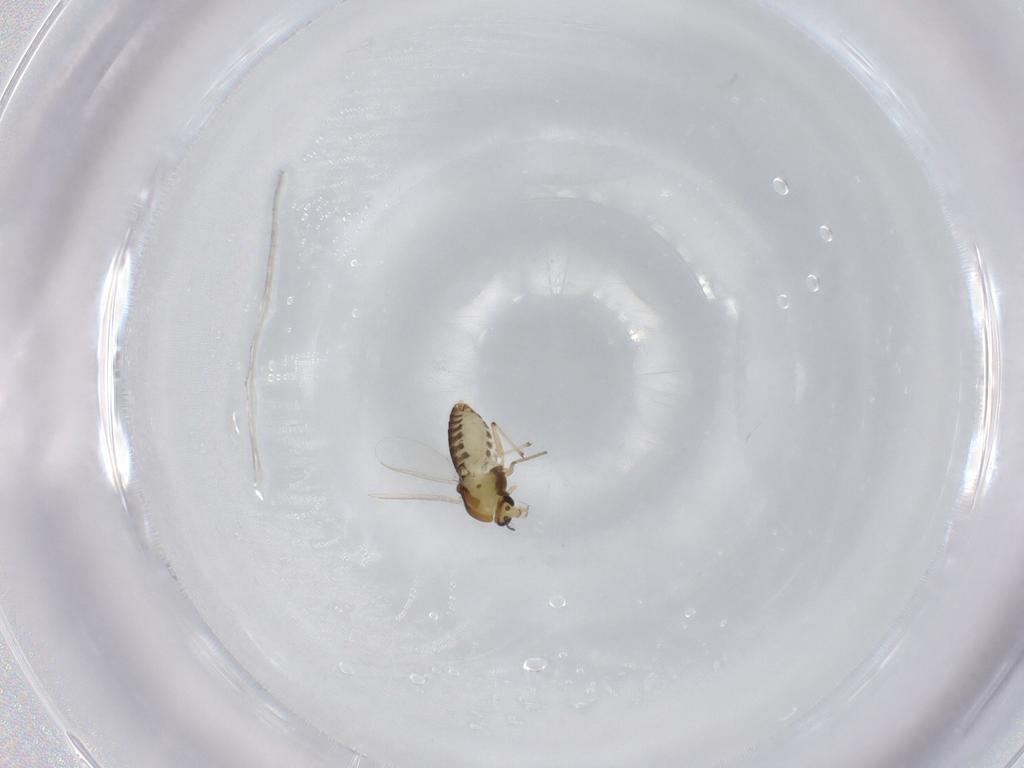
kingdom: Animalia
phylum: Arthropoda
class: Insecta
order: Diptera
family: Chironomidae
